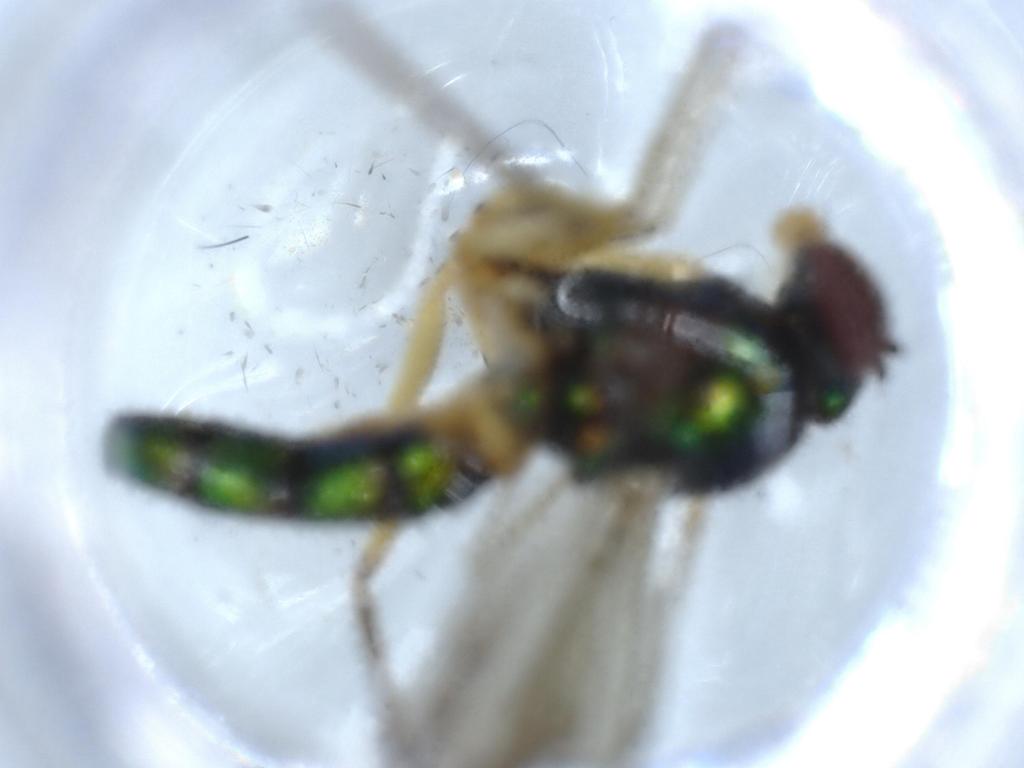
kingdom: Animalia
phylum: Arthropoda
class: Insecta
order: Diptera
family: Dolichopodidae
